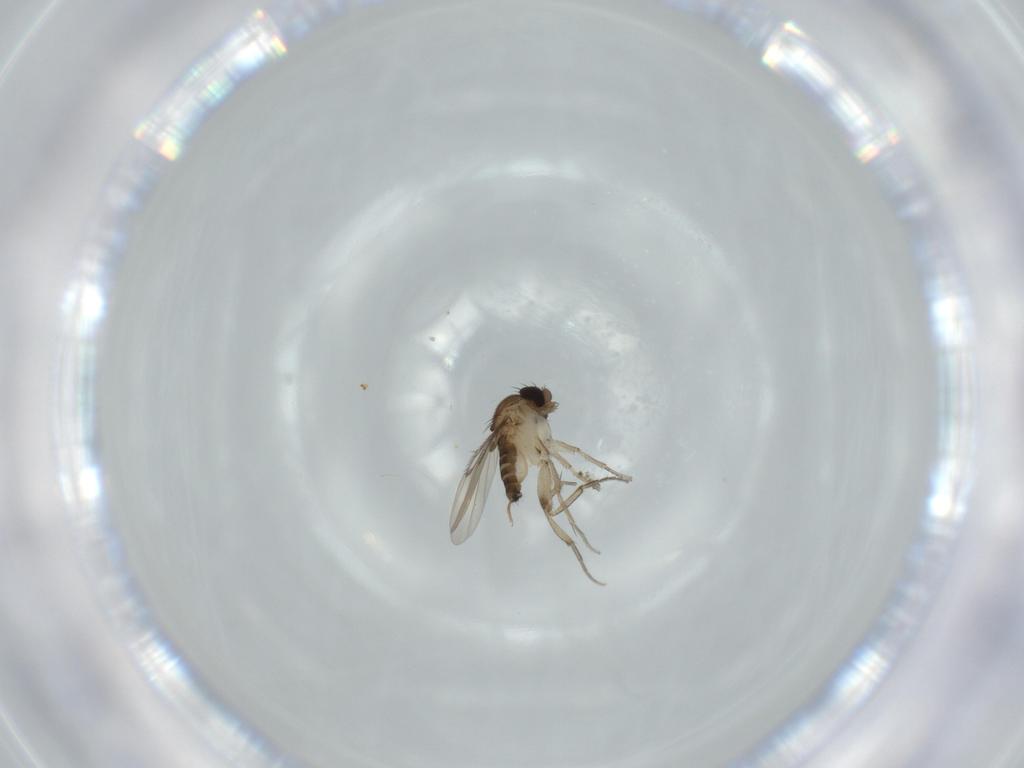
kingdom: Animalia
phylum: Arthropoda
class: Insecta
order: Diptera
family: Phoridae
